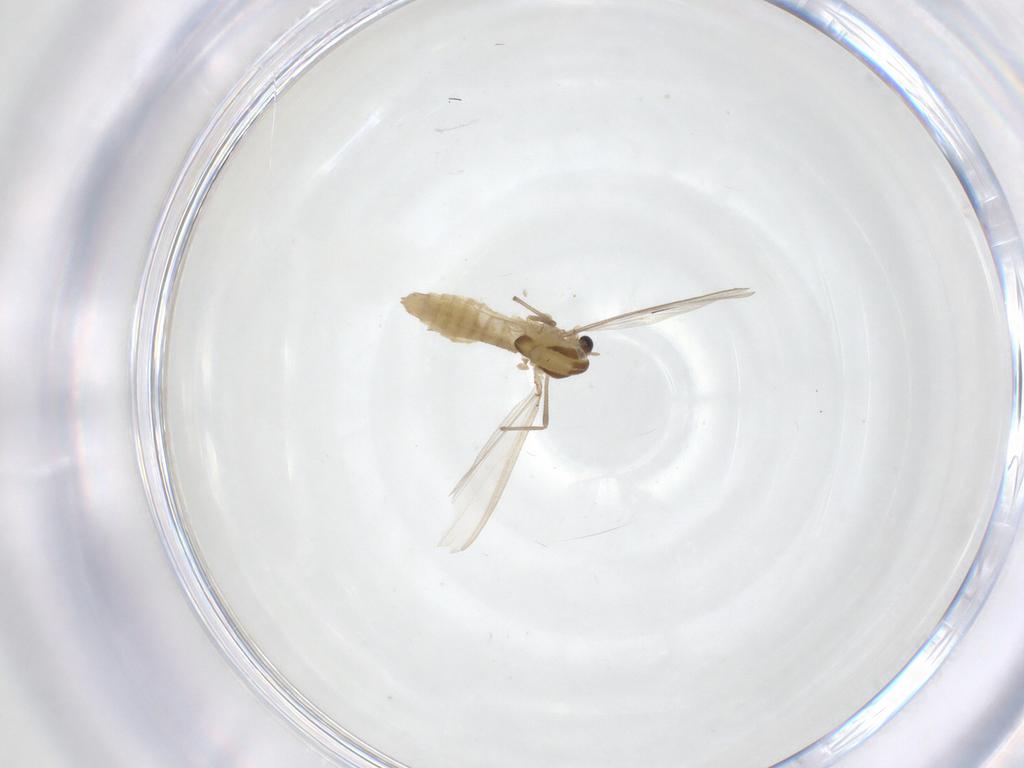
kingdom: Animalia
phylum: Arthropoda
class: Insecta
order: Diptera
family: Chironomidae
